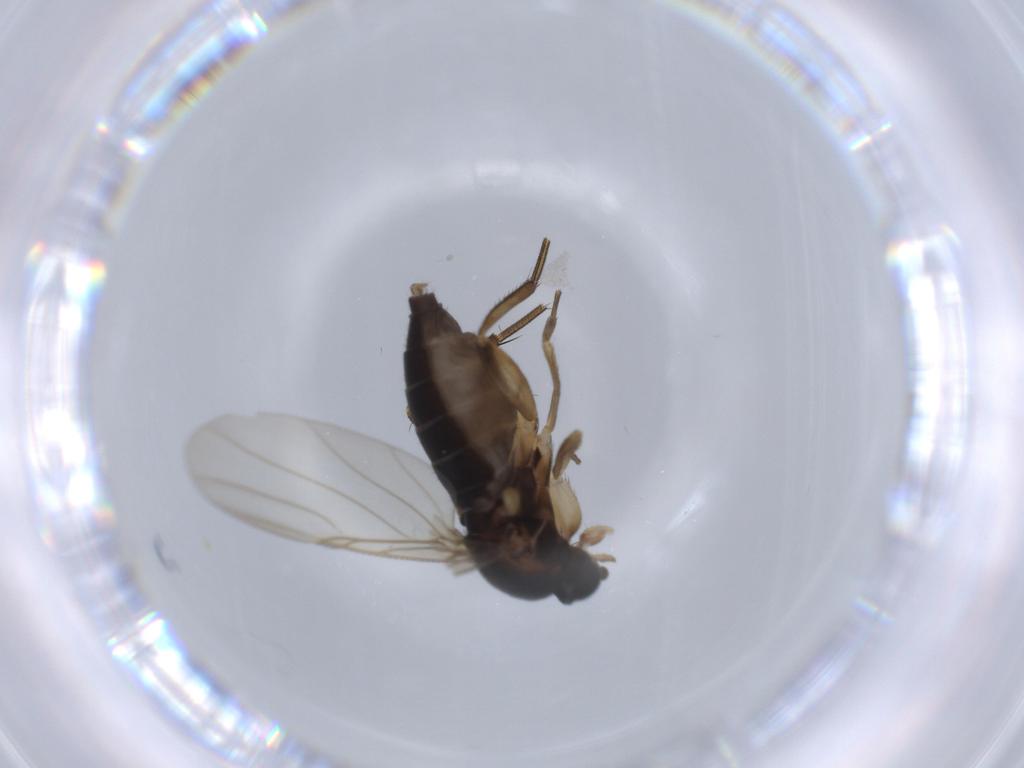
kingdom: Animalia
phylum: Arthropoda
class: Insecta
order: Diptera
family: Phoridae
